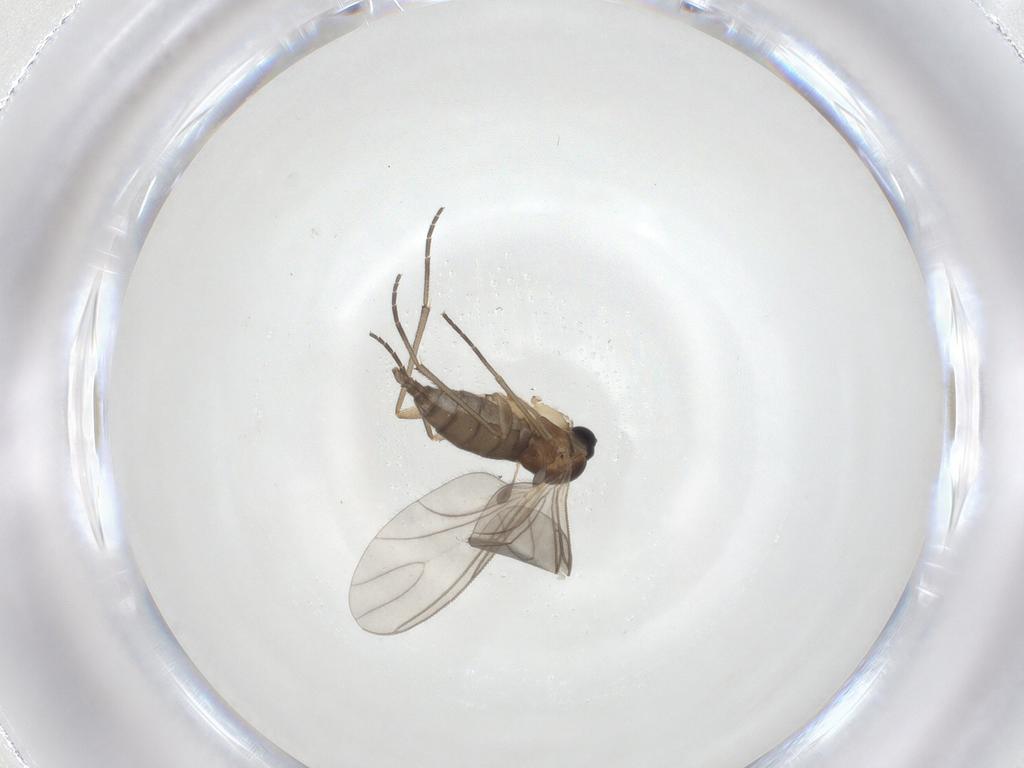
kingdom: Animalia
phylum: Arthropoda
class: Insecta
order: Diptera
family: Sciaridae
